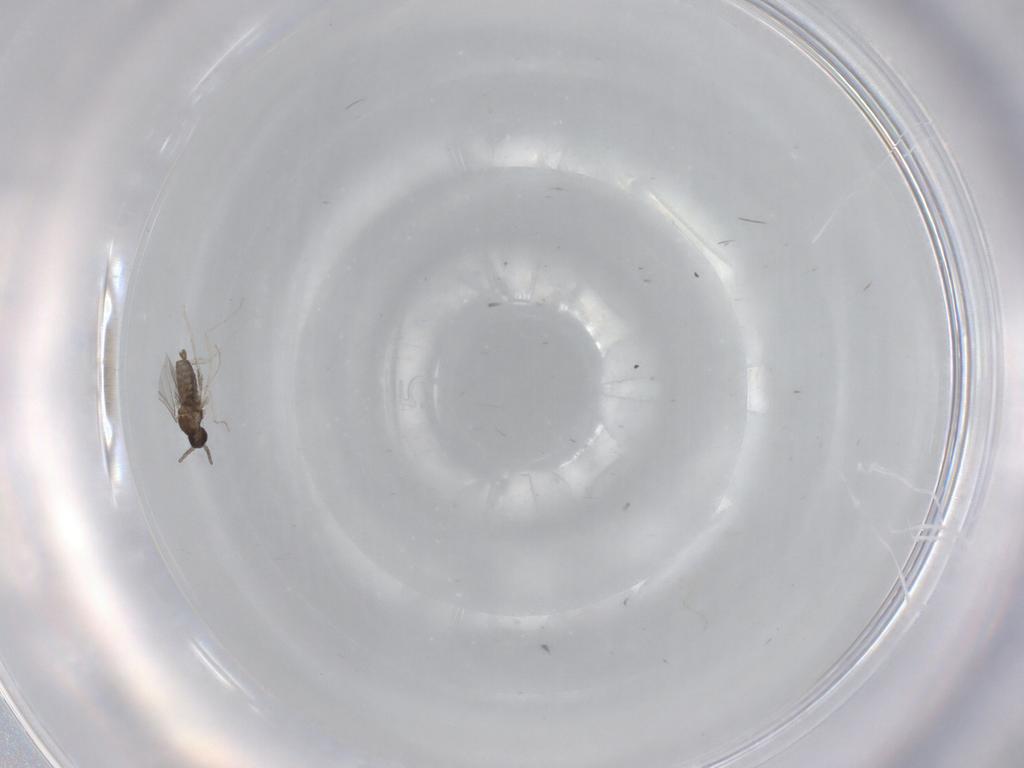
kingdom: Animalia
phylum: Arthropoda
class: Insecta
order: Diptera
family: Cecidomyiidae
